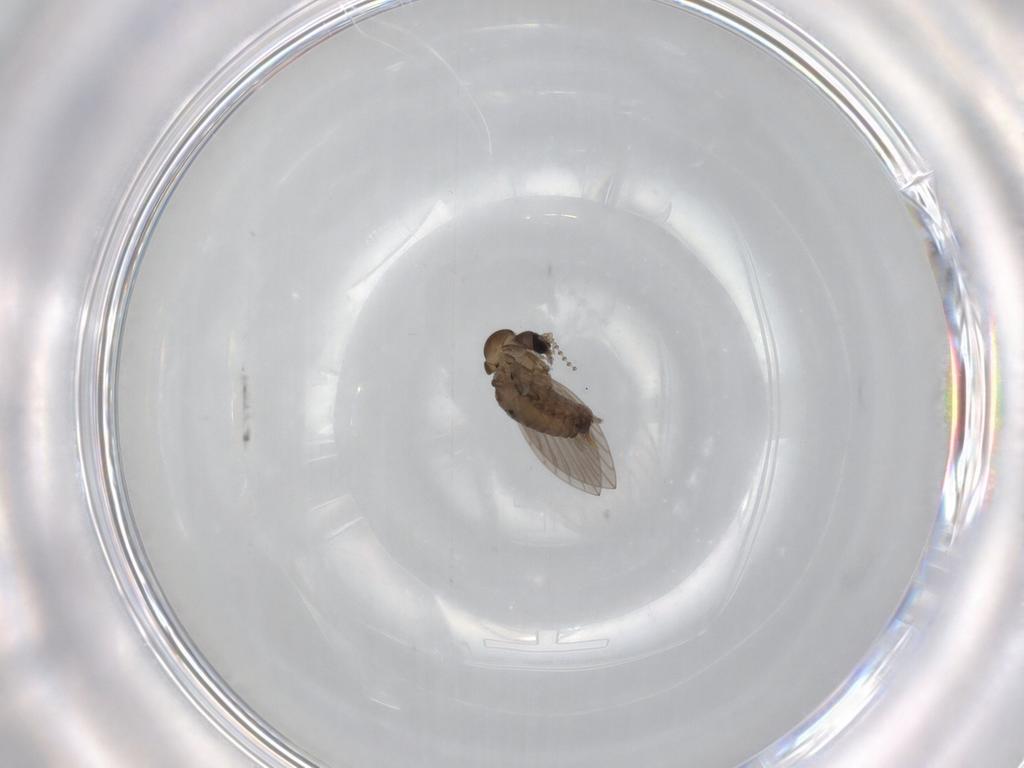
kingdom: Animalia
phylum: Arthropoda
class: Insecta
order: Diptera
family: Psychodidae
